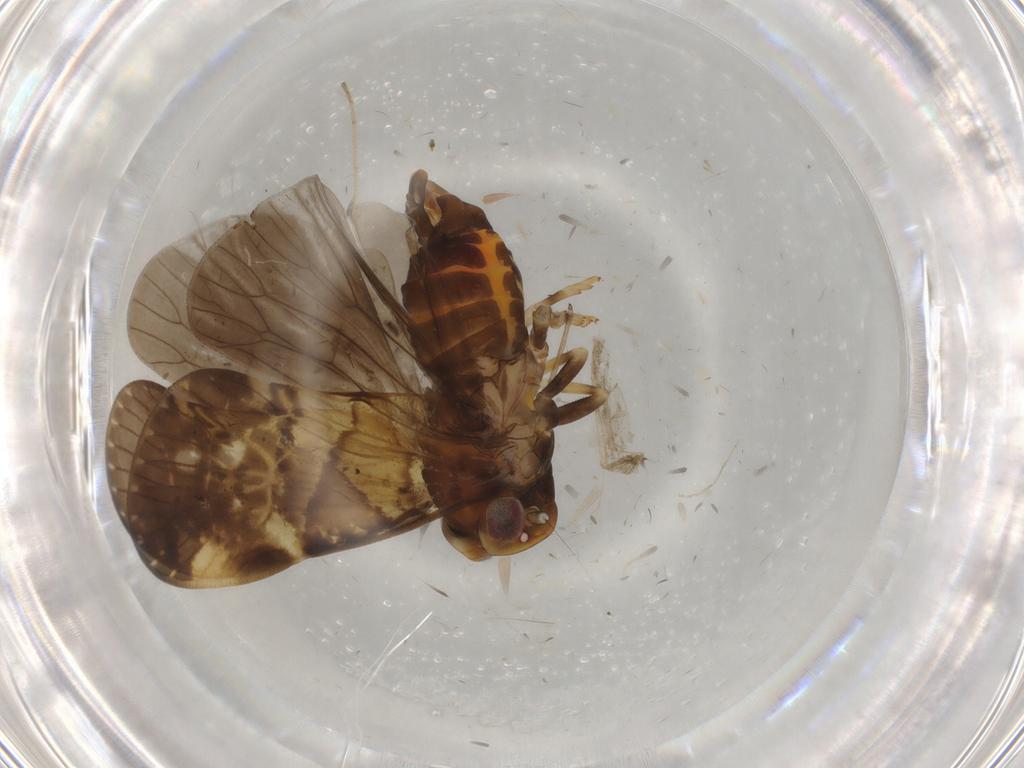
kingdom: Animalia
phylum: Arthropoda
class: Insecta
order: Hemiptera
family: Cixiidae
